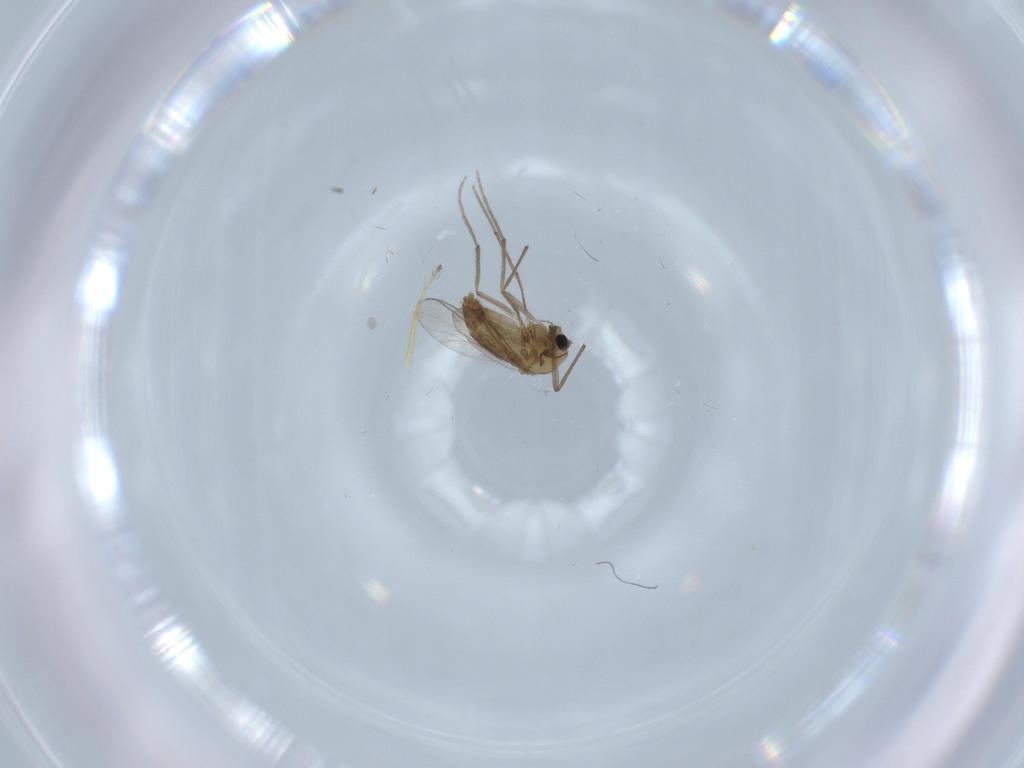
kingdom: Animalia
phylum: Arthropoda
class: Insecta
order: Diptera
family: Chironomidae
